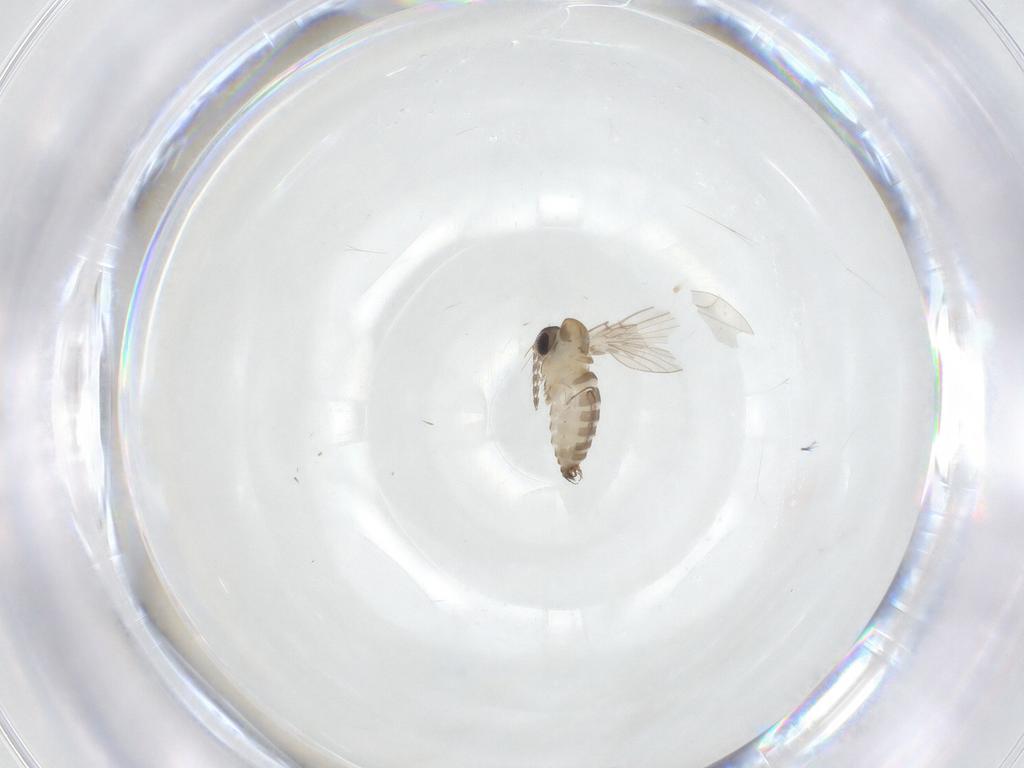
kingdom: Animalia
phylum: Arthropoda
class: Insecta
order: Diptera
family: Psychodidae
